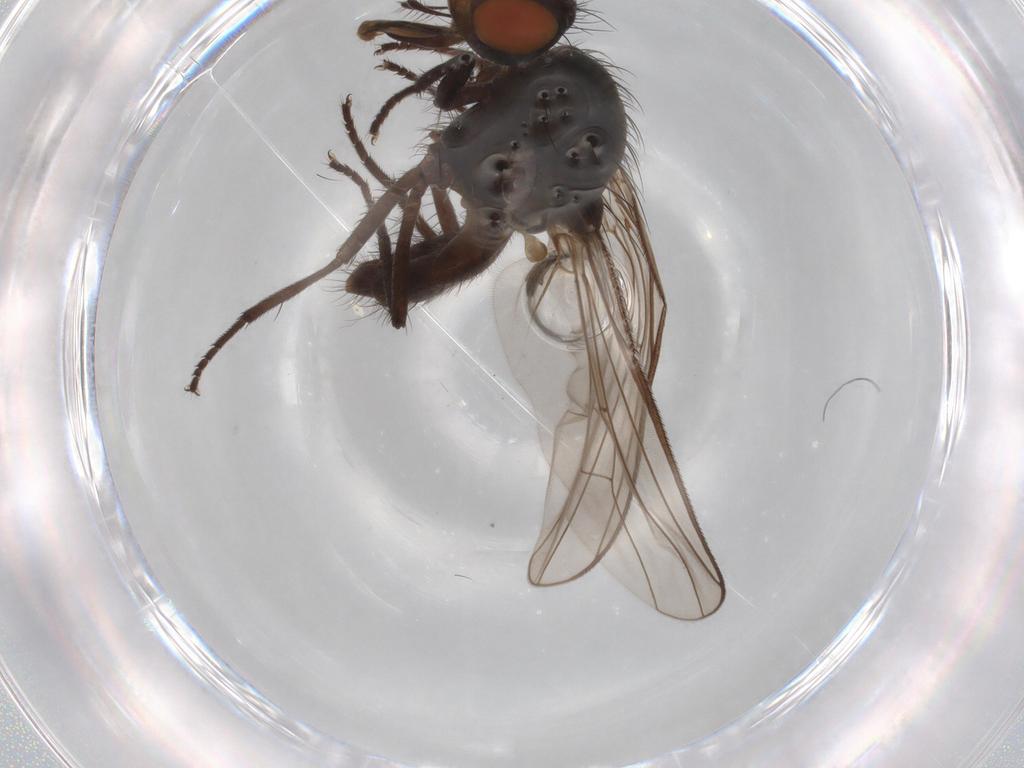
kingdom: Animalia
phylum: Arthropoda
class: Insecta
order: Diptera
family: Anthomyiidae
